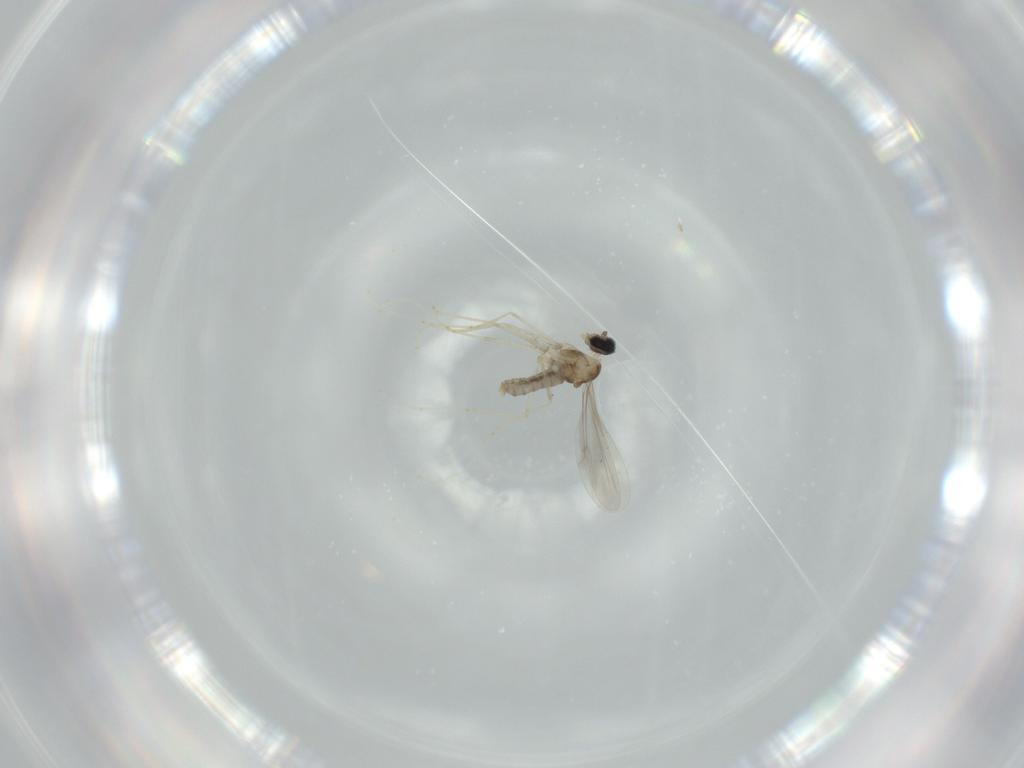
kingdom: Animalia
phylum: Arthropoda
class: Insecta
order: Diptera
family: Cecidomyiidae
